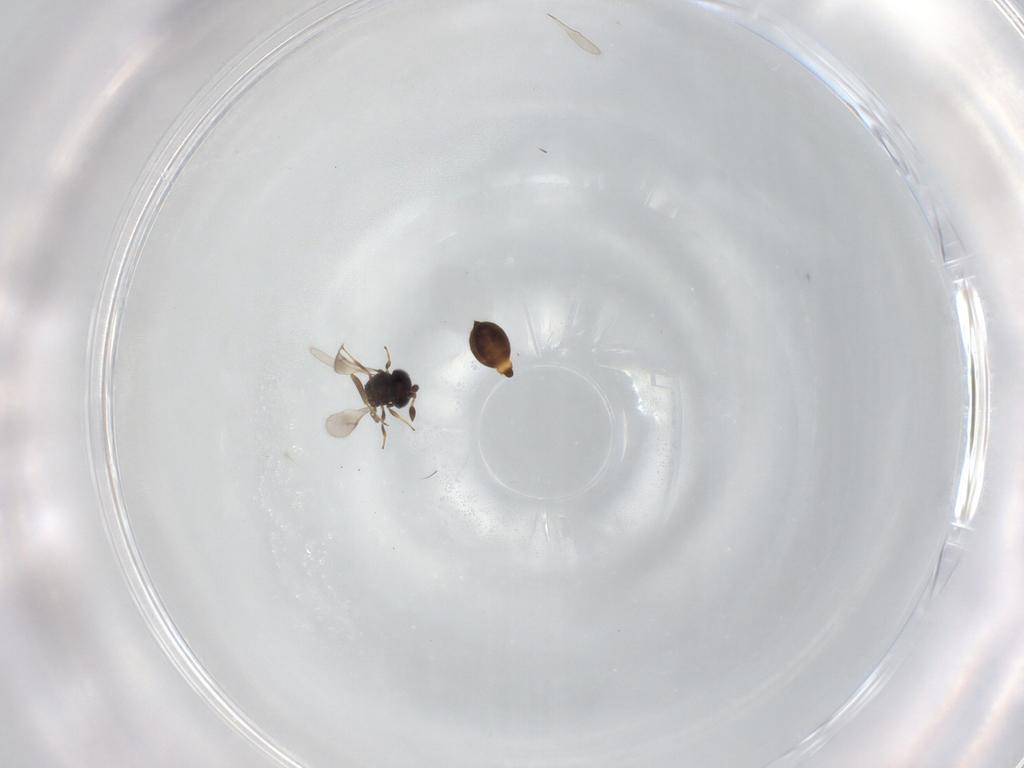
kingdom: Animalia
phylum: Arthropoda
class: Insecta
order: Hymenoptera
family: Scelionidae
